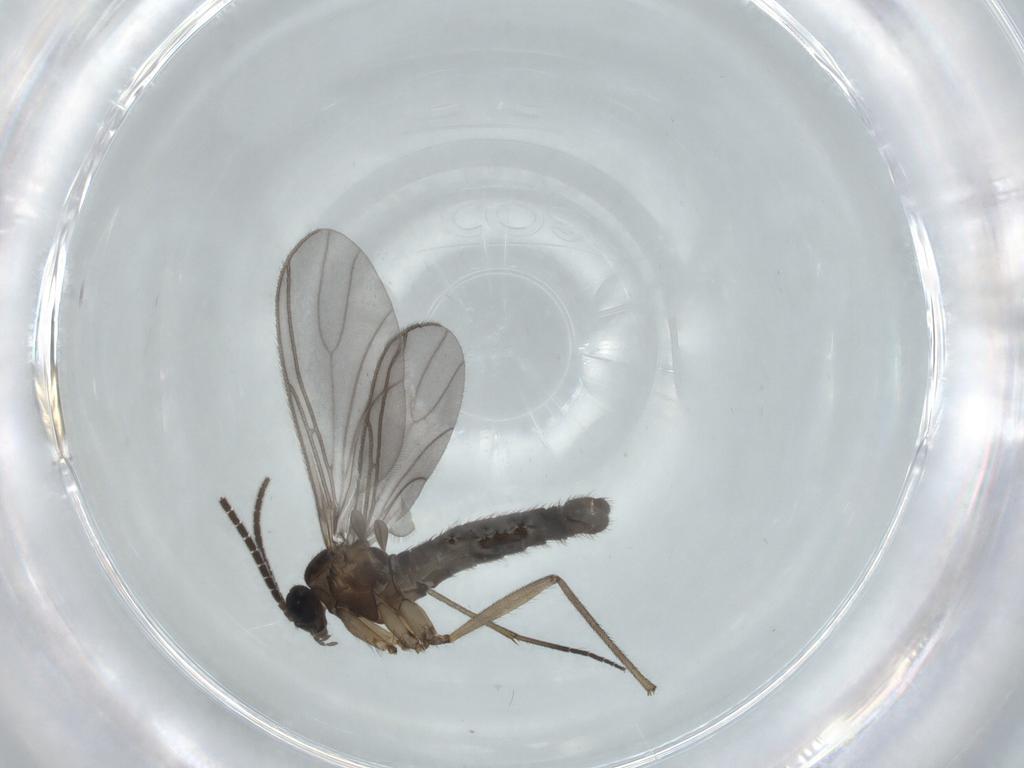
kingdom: Animalia
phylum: Arthropoda
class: Insecta
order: Diptera
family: Sciaridae
